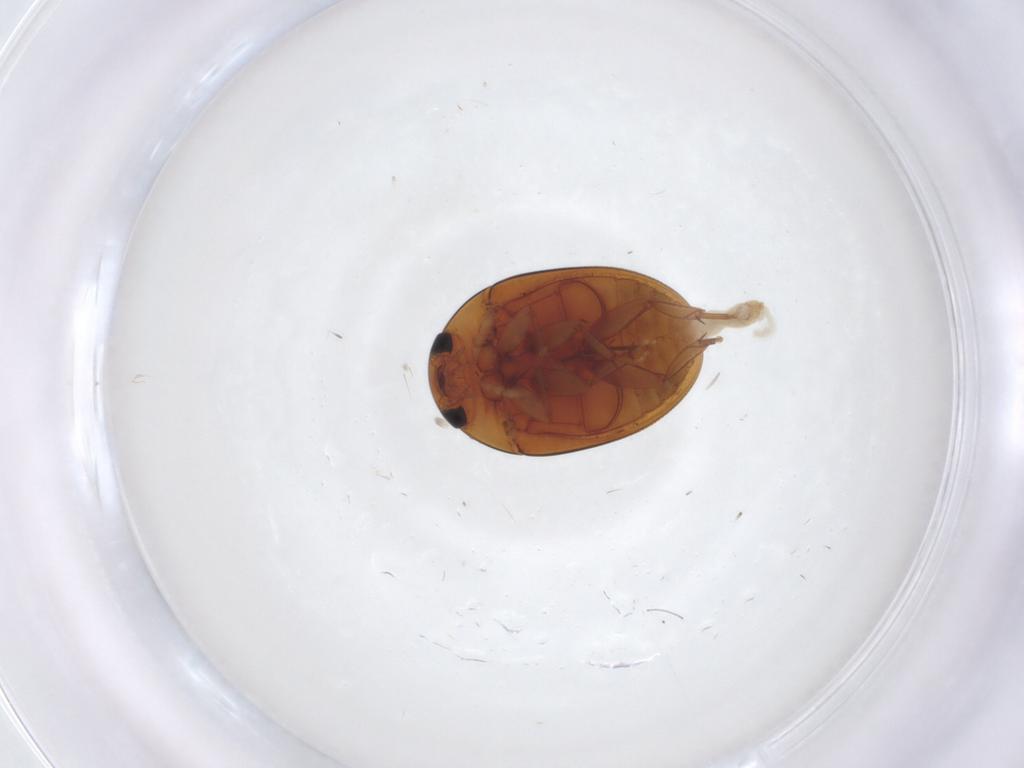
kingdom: Animalia
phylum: Arthropoda
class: Insecta
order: Coleoptera
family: Phalacridae
